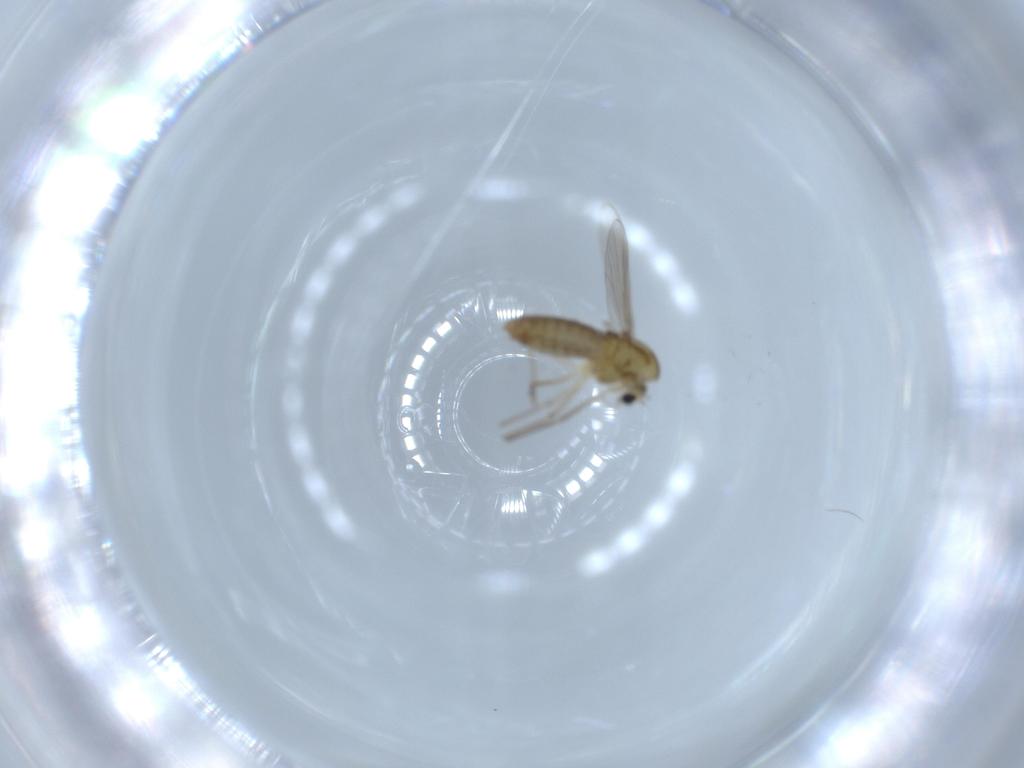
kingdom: Animalia
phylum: Arthropoda
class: Insecta
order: Diptera
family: Chironomidae
